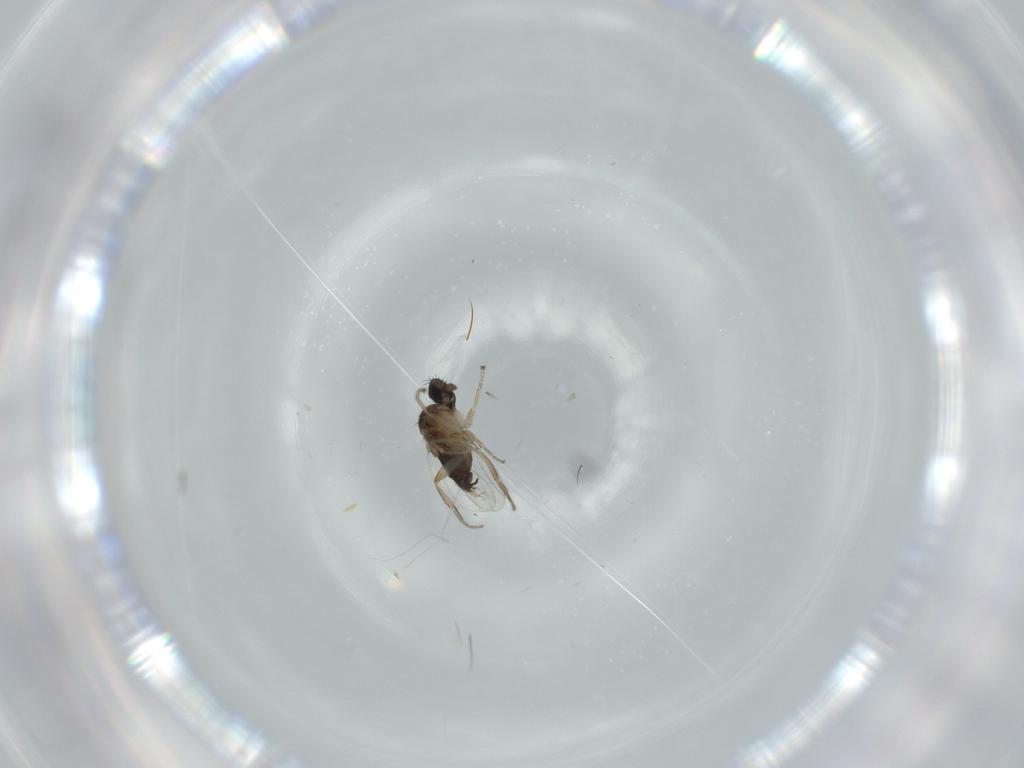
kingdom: Animalia
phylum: Arthropoda
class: Insecta
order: Diptera
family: Phoridae
